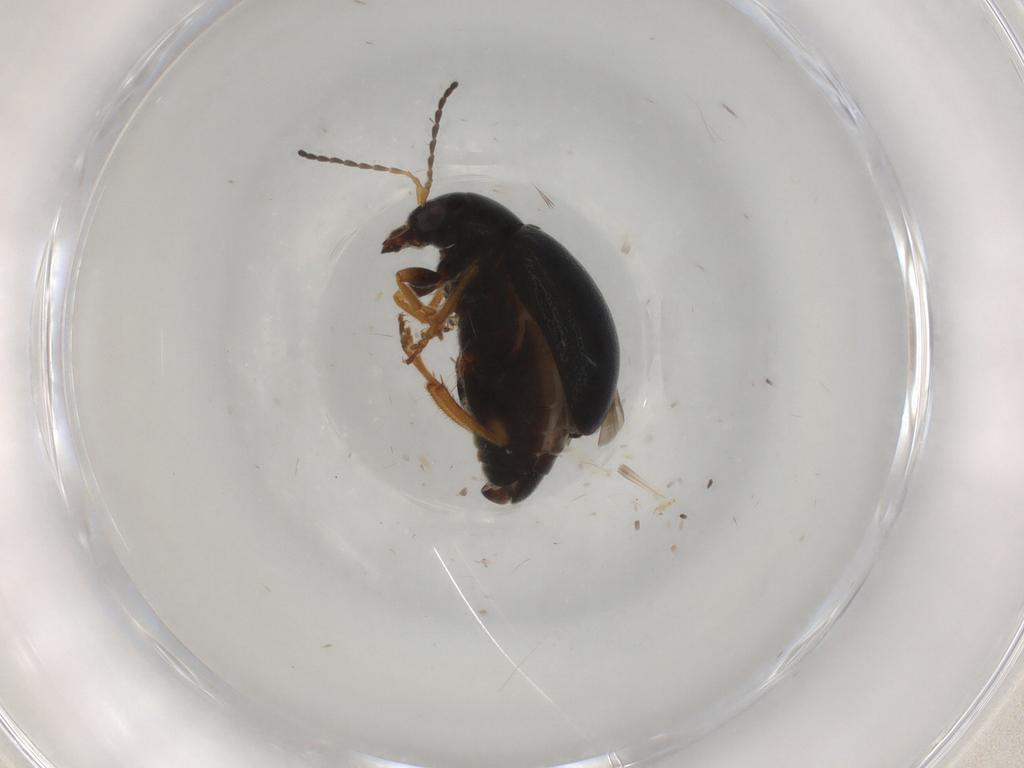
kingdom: Animalia
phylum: Arthropoda
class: Insecta
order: Coleoptera
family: Chrysomelidae
